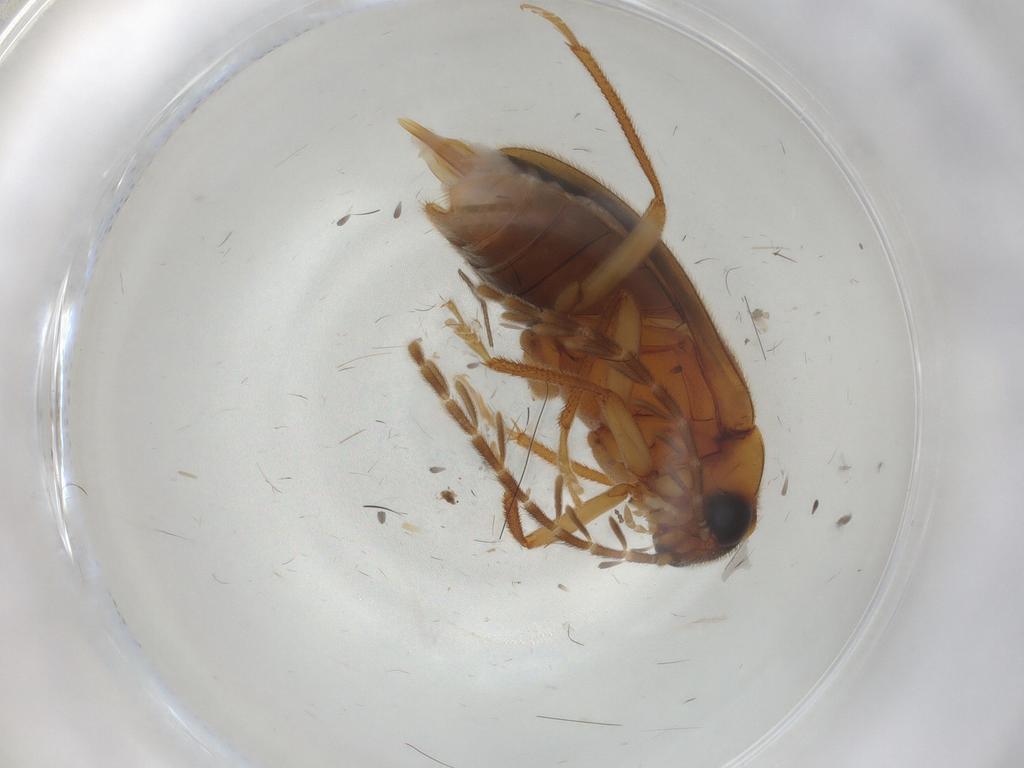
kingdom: Animalia
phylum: Arthropoda
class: Insecta
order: Coleoptera
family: Ptilodactylidae
